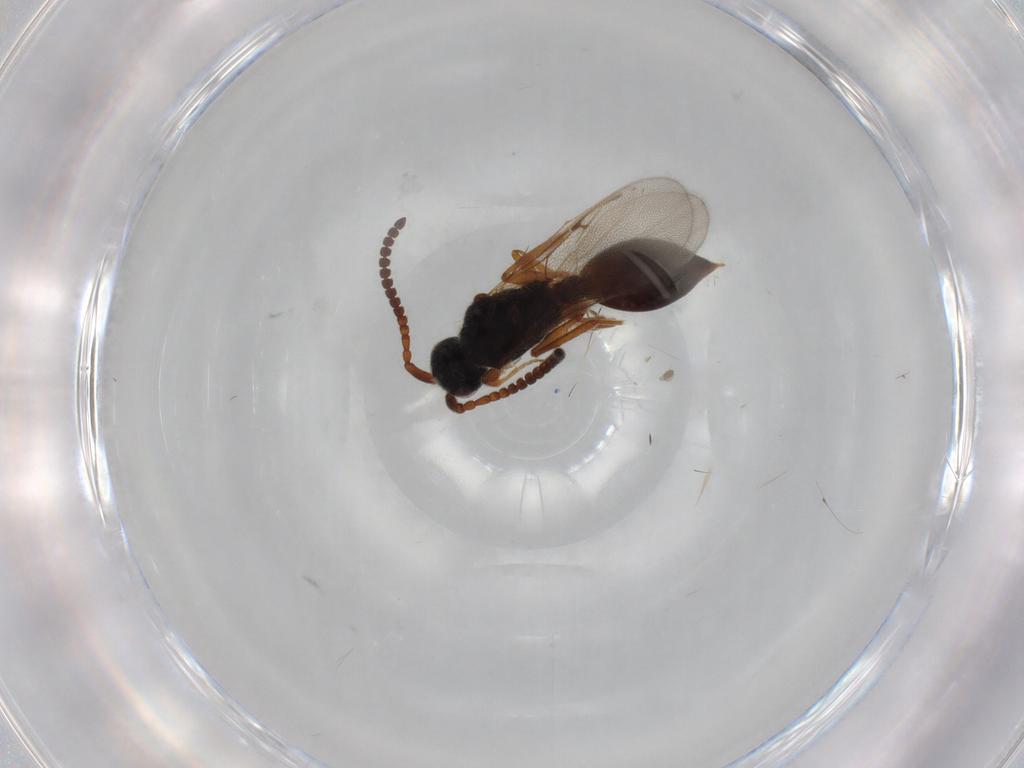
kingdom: Animalia
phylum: Arthropoda
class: Insecta
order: Hymenoptera
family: Diapriidae
